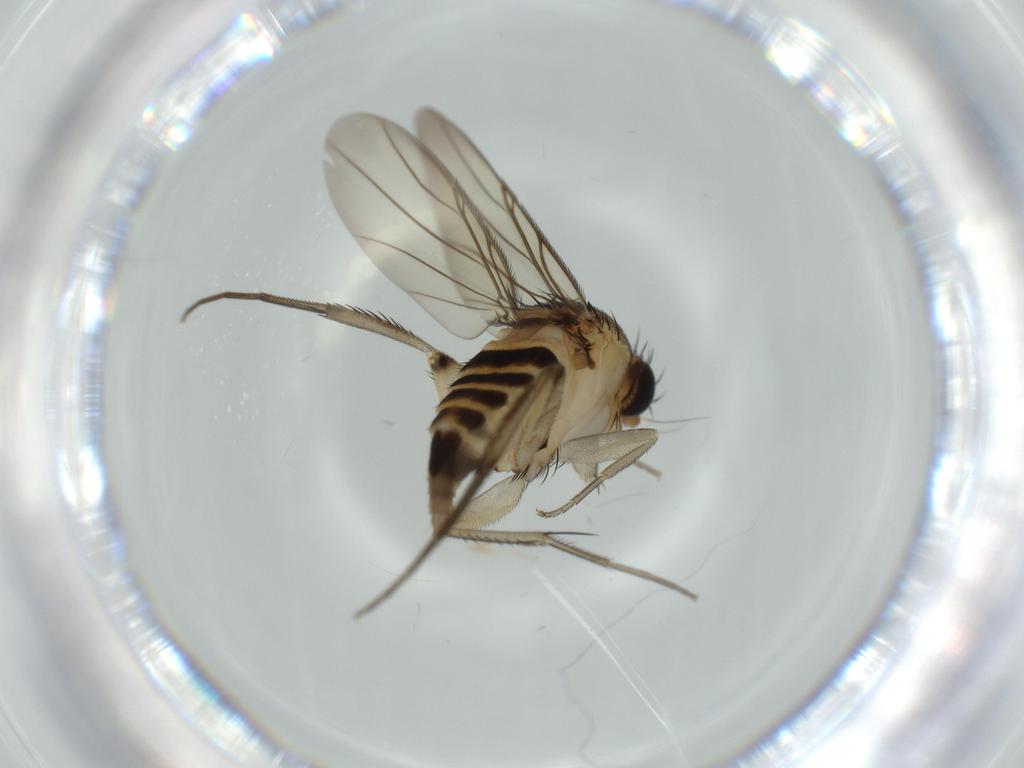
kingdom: Animalia
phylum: Arthropoda
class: Insecta
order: Diptera
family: Phoridae
